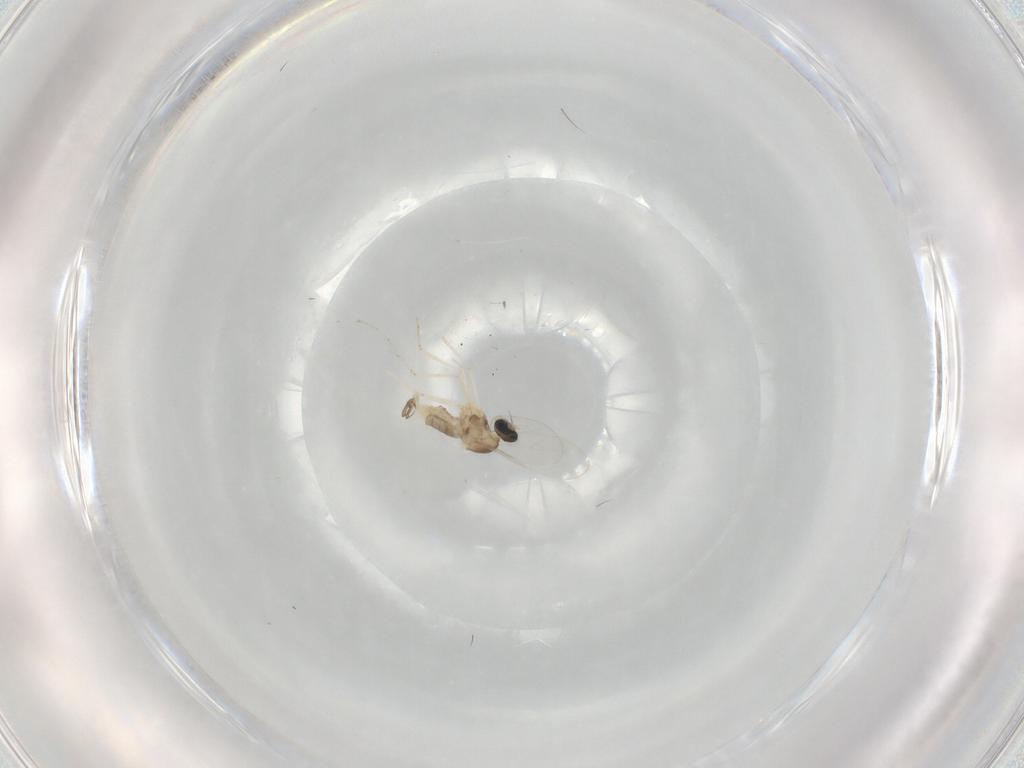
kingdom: Animalia
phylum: Arthropoda
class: Insecta
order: Diptera
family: Cecidomyiidae
